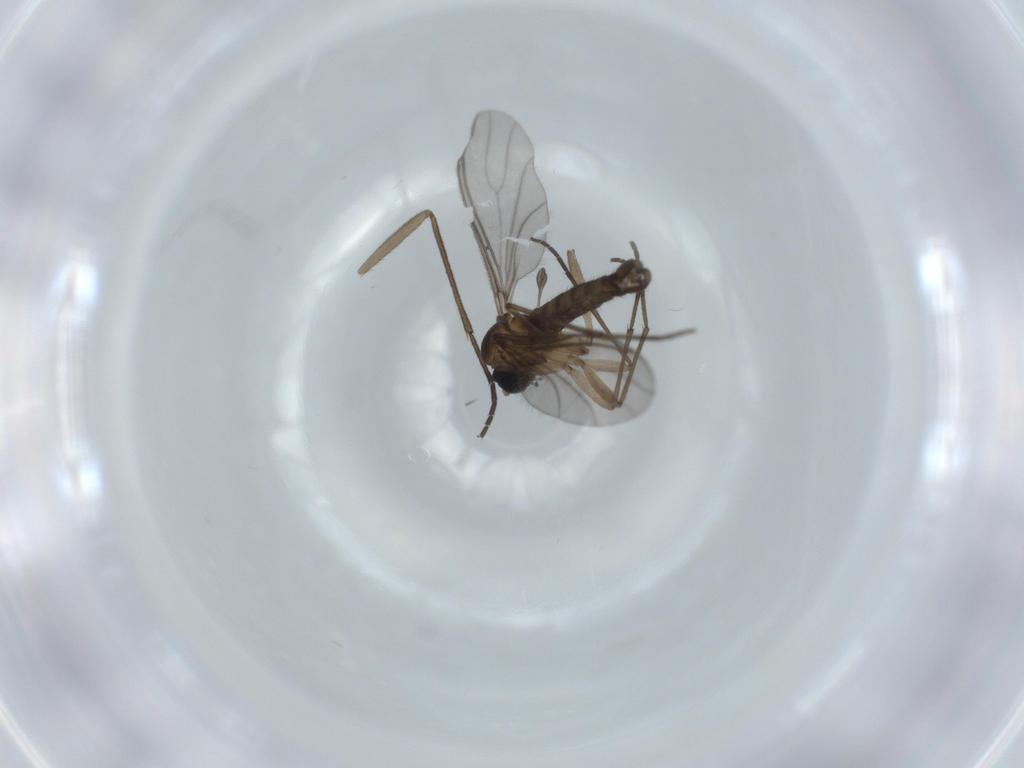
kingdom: Animalia
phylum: Arthropoda
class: Insecta
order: Diptera
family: Sciaridae
